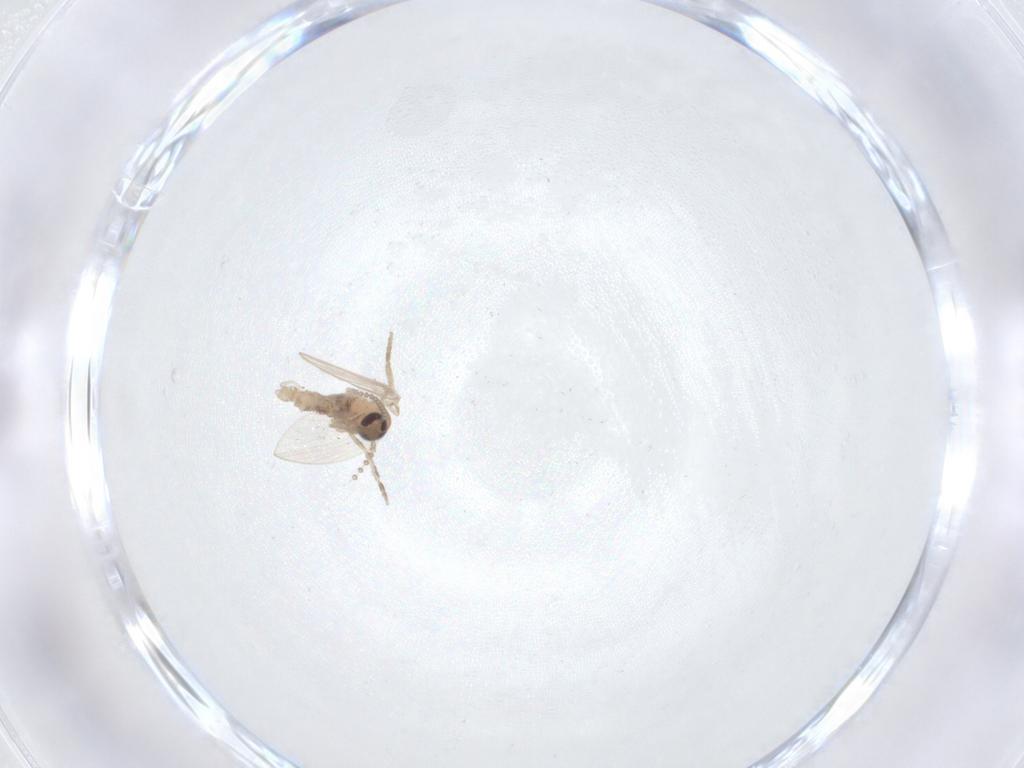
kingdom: Animalia
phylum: Arthropoda
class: Insecta
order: Diptera
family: Psychodidae
